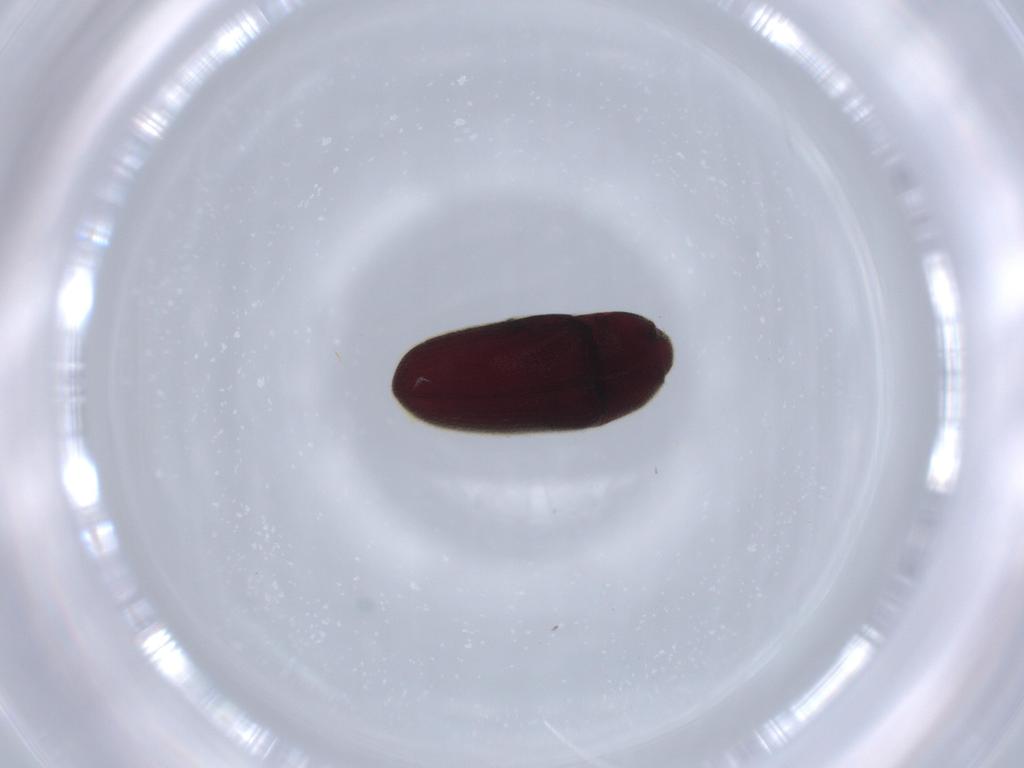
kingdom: Animalia
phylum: Arthropoda
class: Insecta
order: Coleoptera
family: Throscidae
